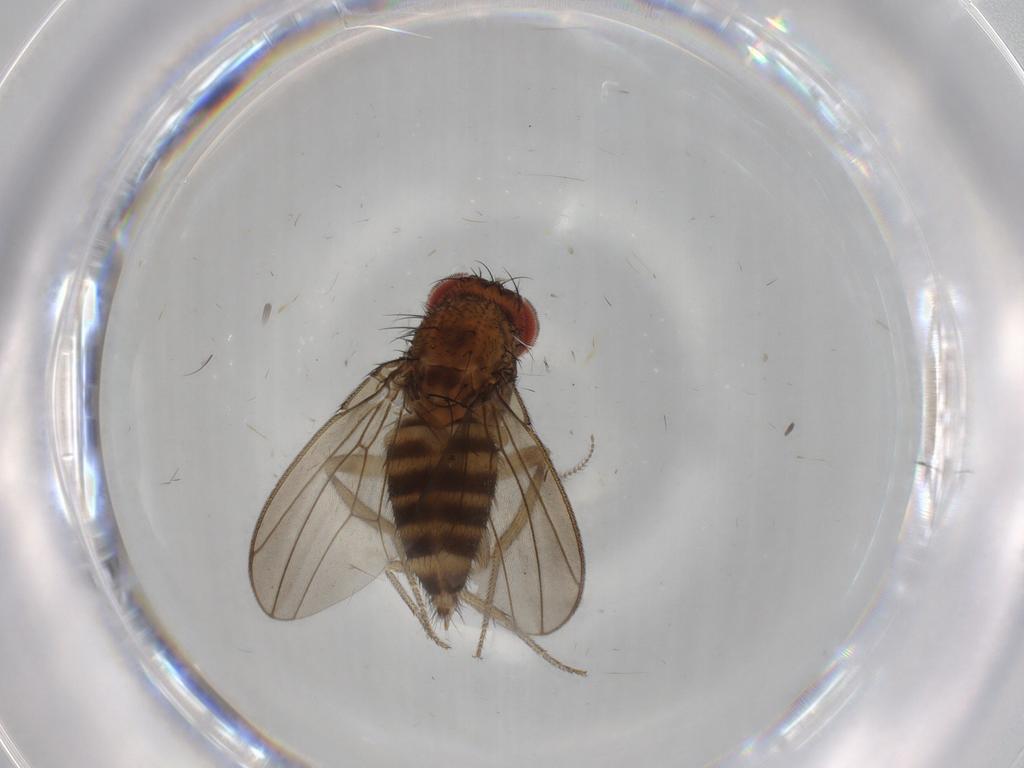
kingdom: Animalia
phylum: Arthropoda
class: Insecta
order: Diptera
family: Drosophilidae
